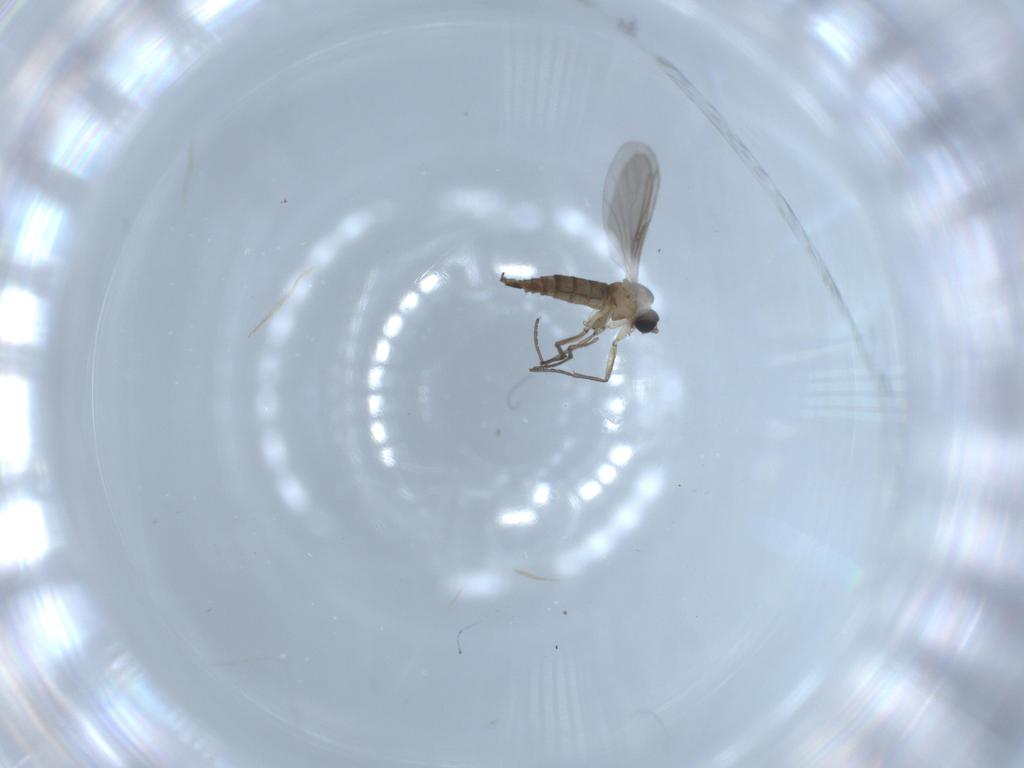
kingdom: Animalia
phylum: Arthropoda
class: Insecta
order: Diptera
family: Sciaridae
